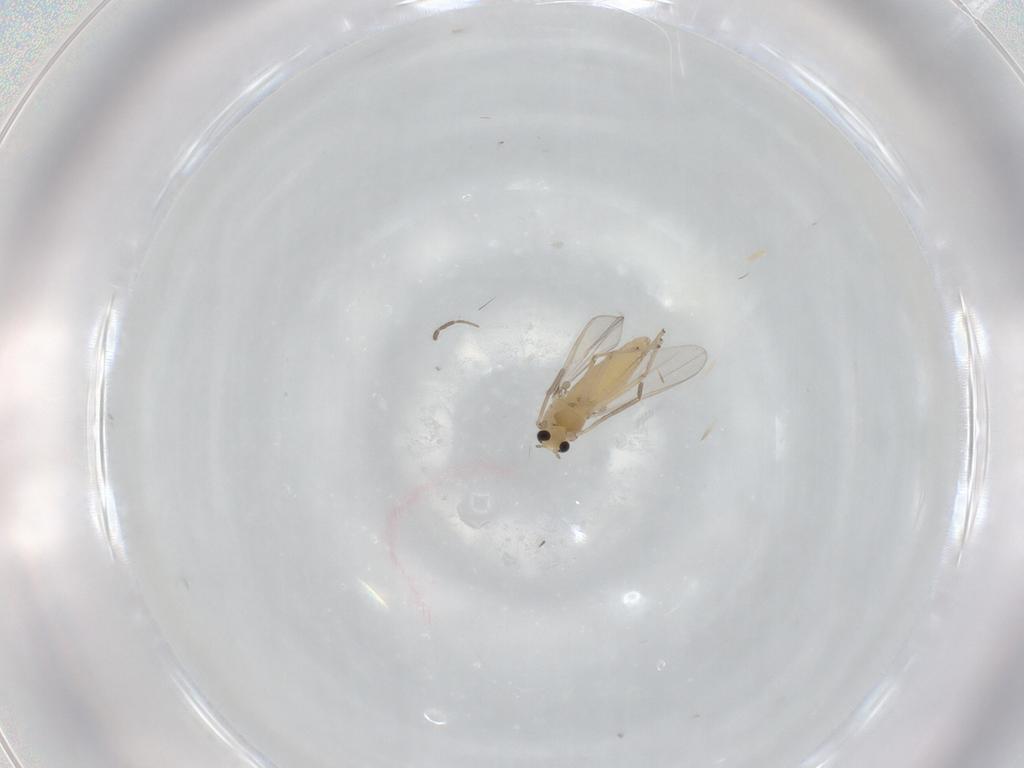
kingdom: Animalia
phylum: Arthropoda
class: Insecta
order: Diptera
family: Chironomidae
